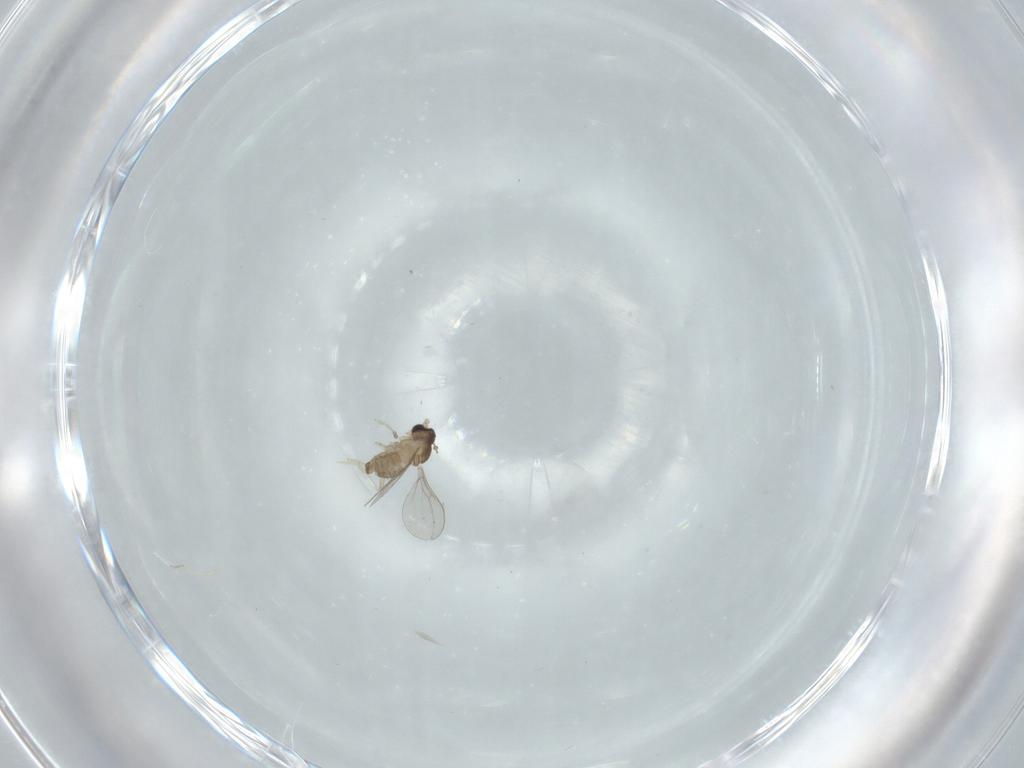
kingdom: Animalia
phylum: Arthropoda
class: Insecta
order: Diptera
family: Cecidomyiidae
